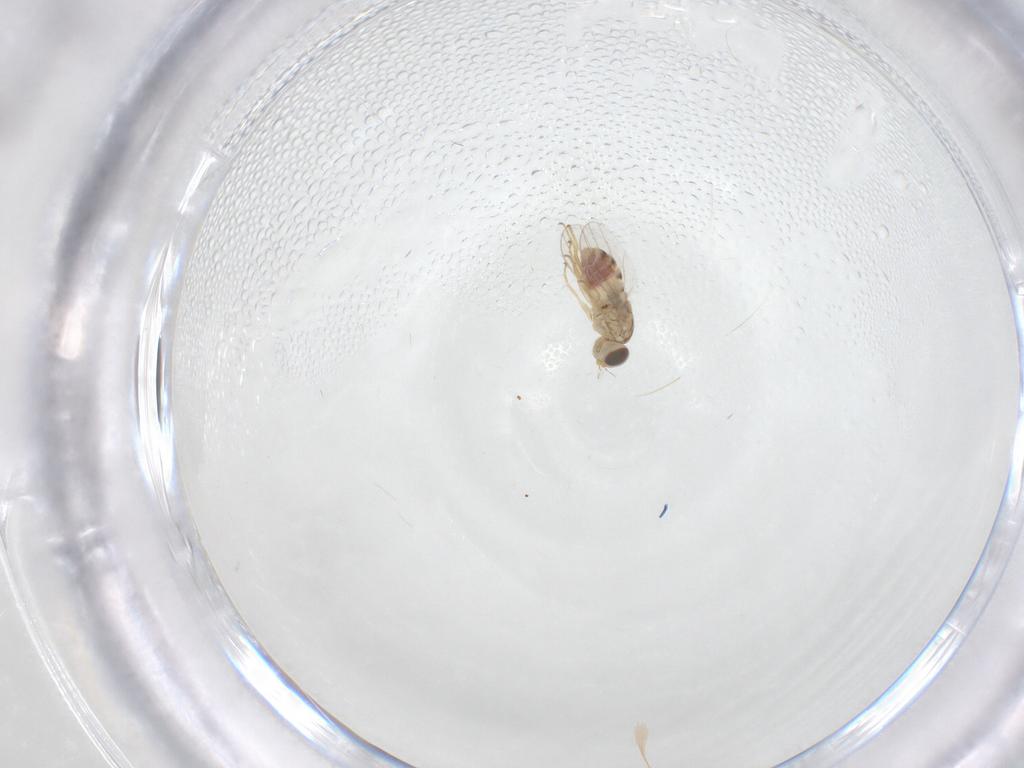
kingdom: Animalia
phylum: Arthropoda
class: Insecta
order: Diptera
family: Chyromyidae
